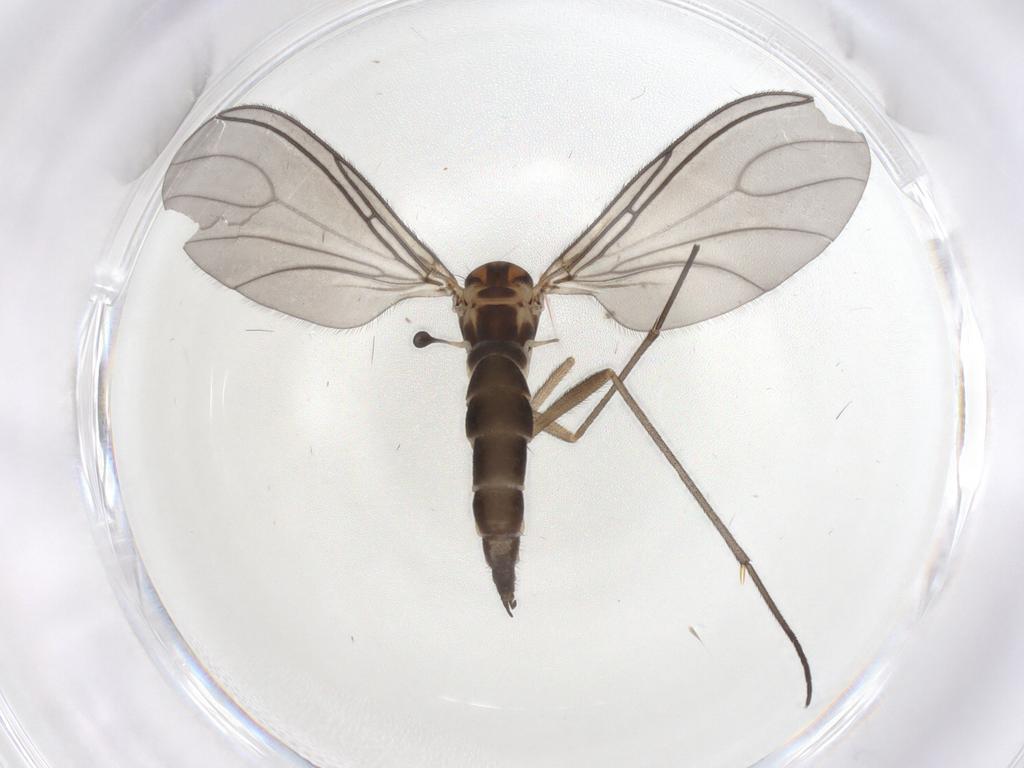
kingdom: Animalia
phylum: Arthropoda
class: Insecta
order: Diptera
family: Sciaridae
